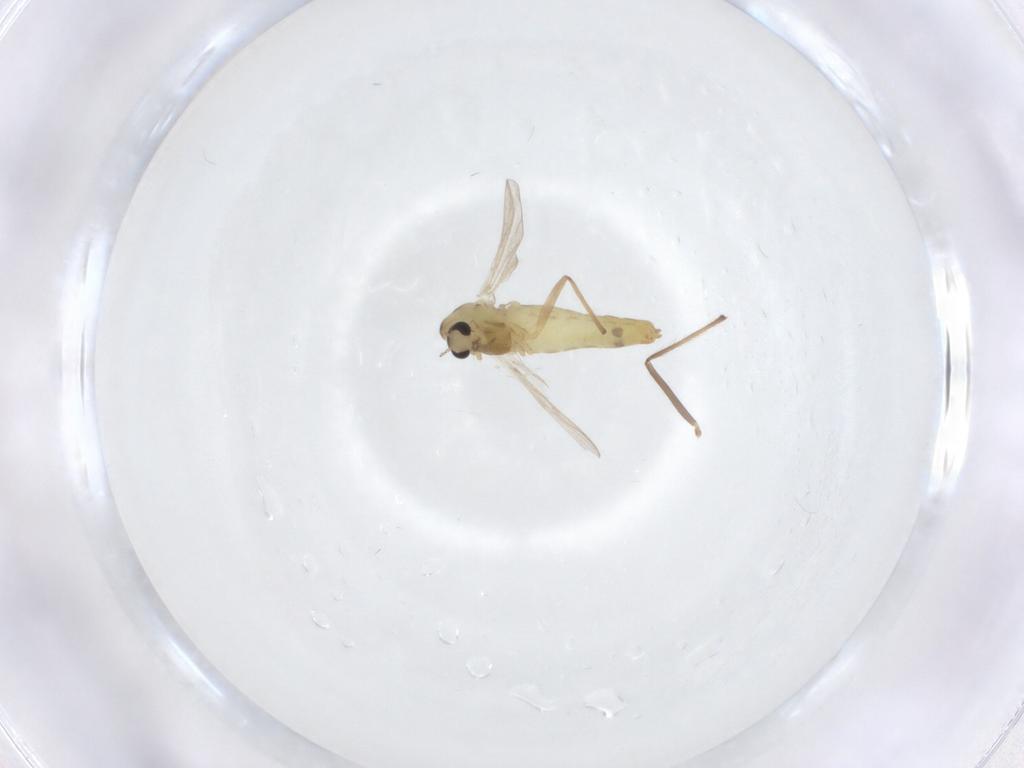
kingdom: Animalia
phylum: Arthropoda
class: Insecta
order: Diptera
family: Chironomidae
